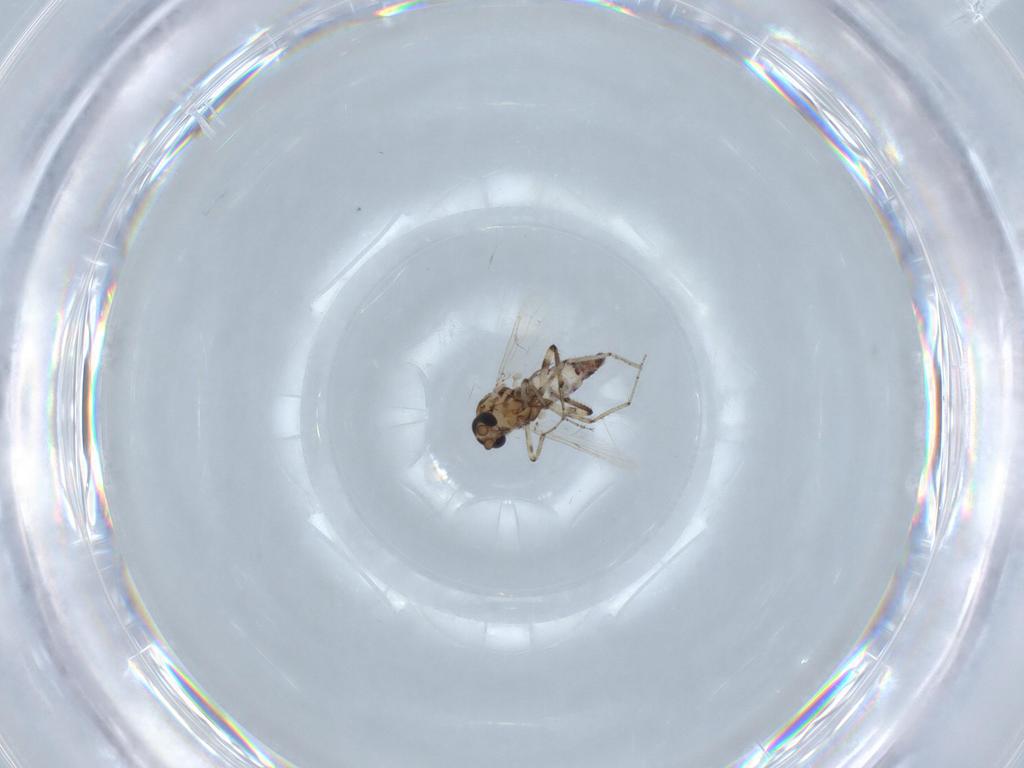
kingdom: Animalia
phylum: Arthropoda
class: Insecta
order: Diptera
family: Ceratopogonidae
